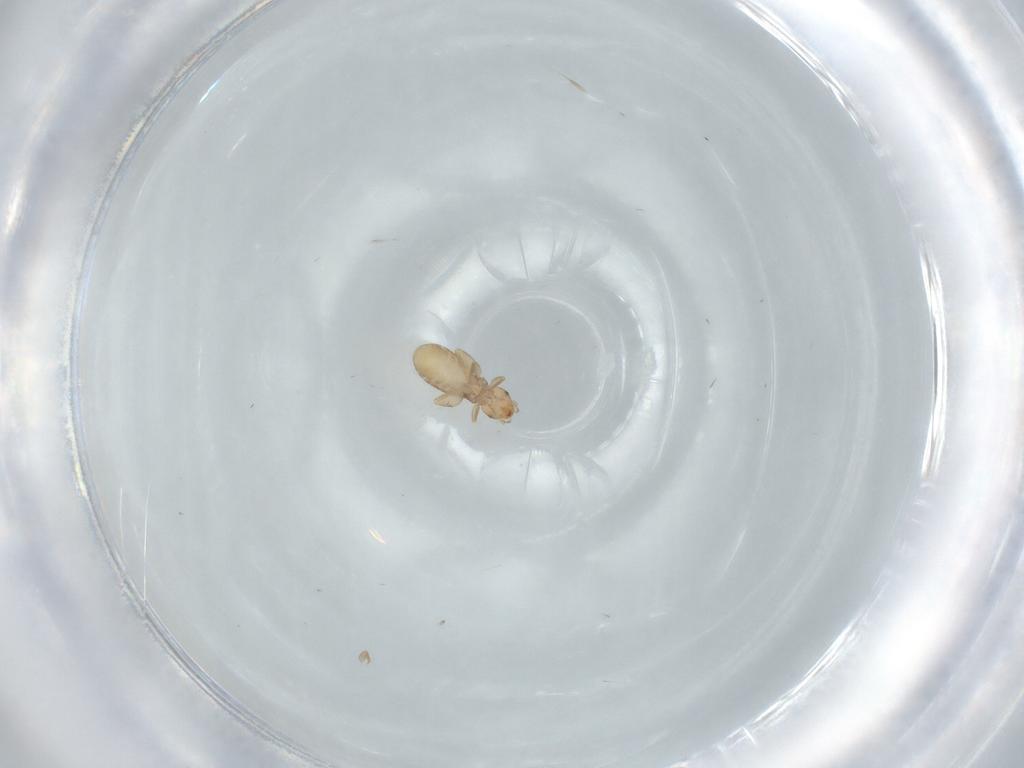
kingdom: Animalia
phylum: Arthropoda
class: Insecta
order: Psocodea
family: Liposcelididae
